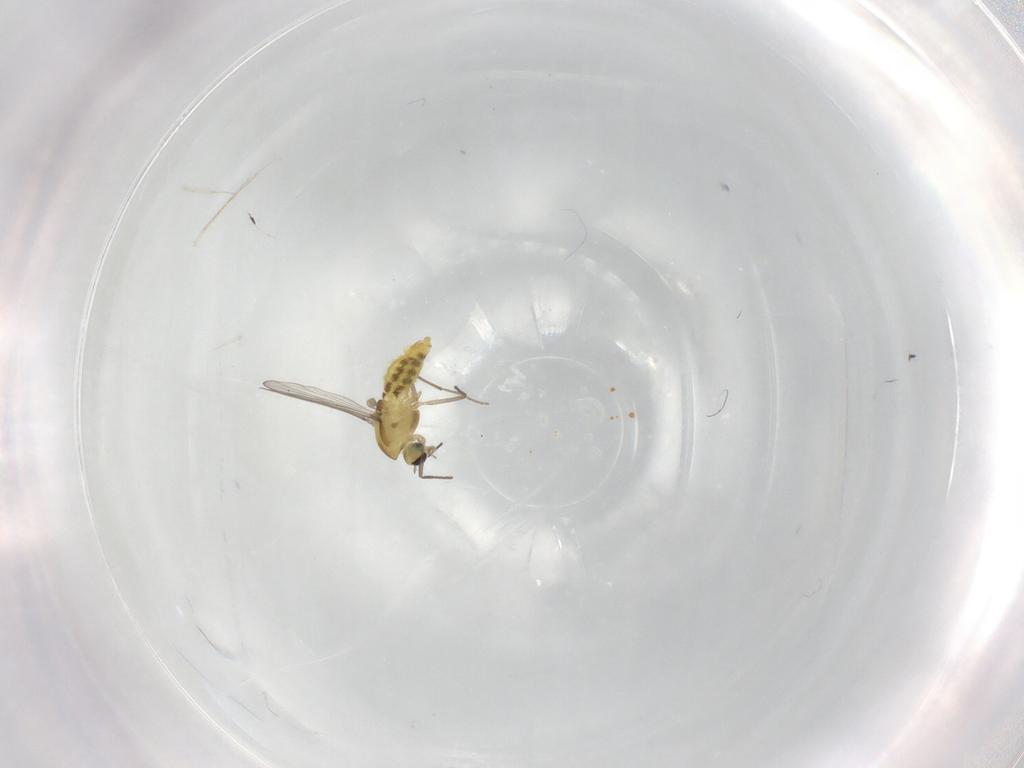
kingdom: Animalia
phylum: Arthropoda
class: Insecta
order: Diptera
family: Chironomidae
